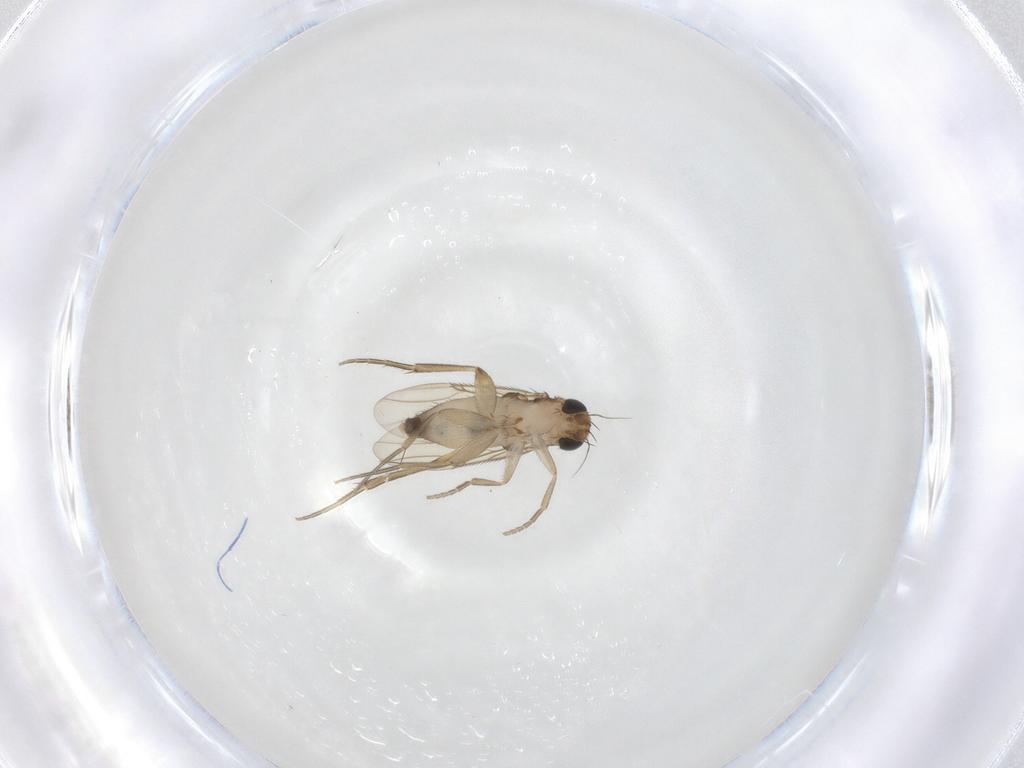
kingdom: Animalia
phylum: Arthropoda
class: Insecta
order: Diptera
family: Phoridae
